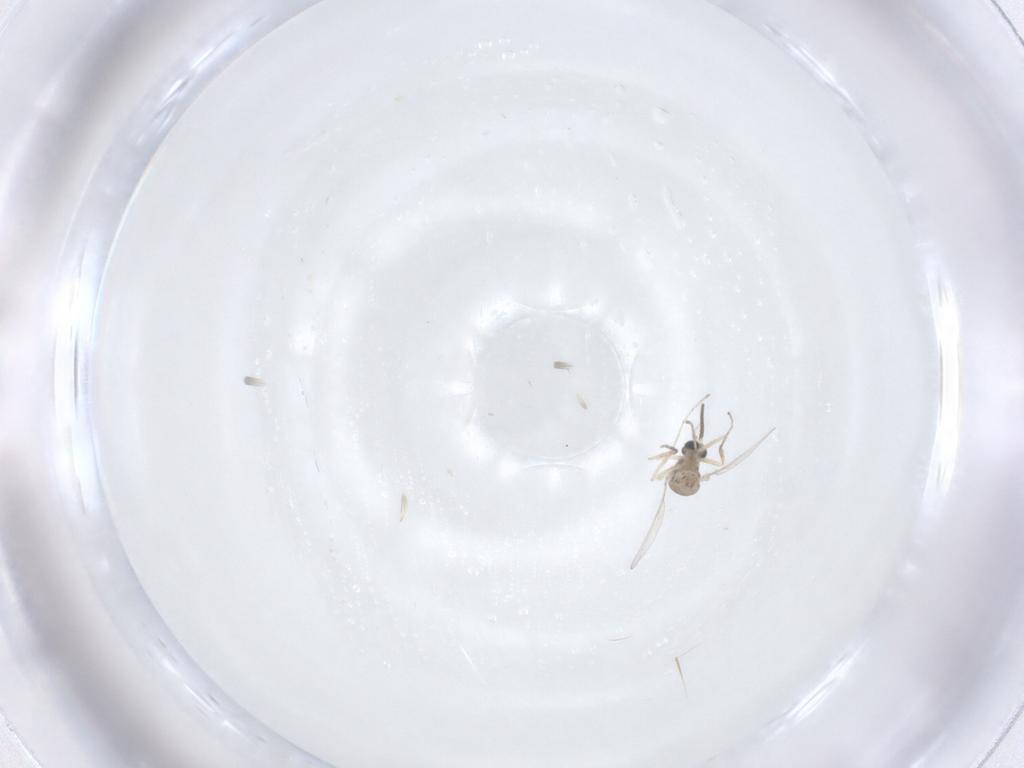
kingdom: Animalia
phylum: Arthropoda
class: Insecta
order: Diptera
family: Cecidomyiidae
